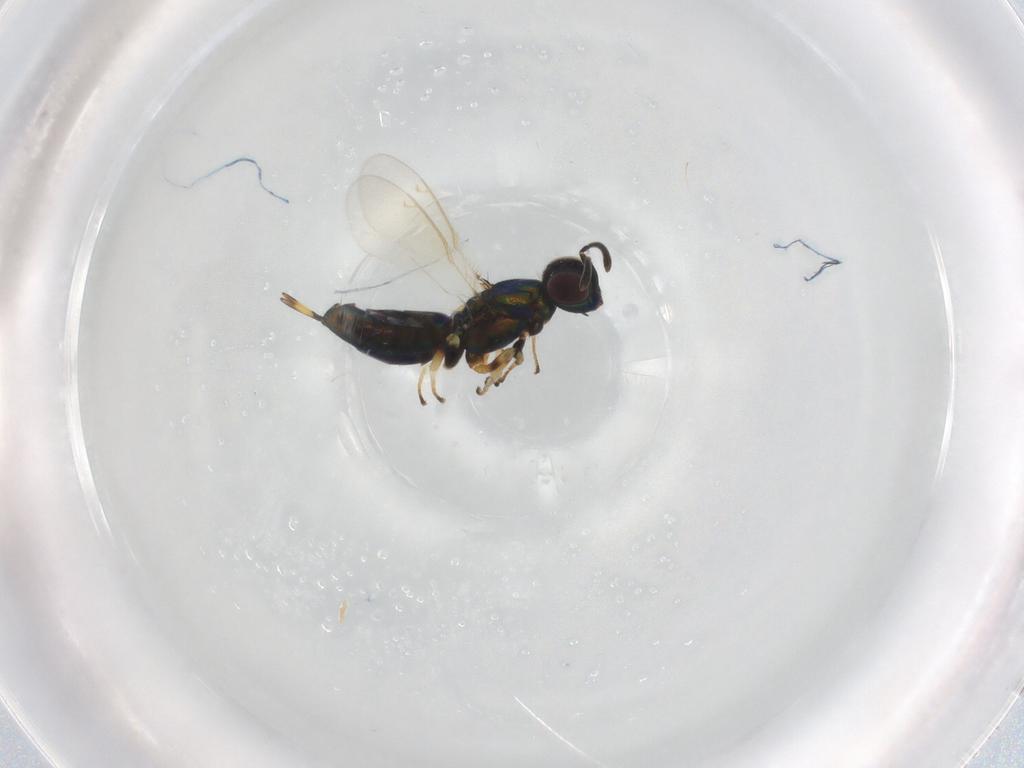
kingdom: Animalia
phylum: Arthropoda
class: Insecta
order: Hymenoptera
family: Eupelmidae
